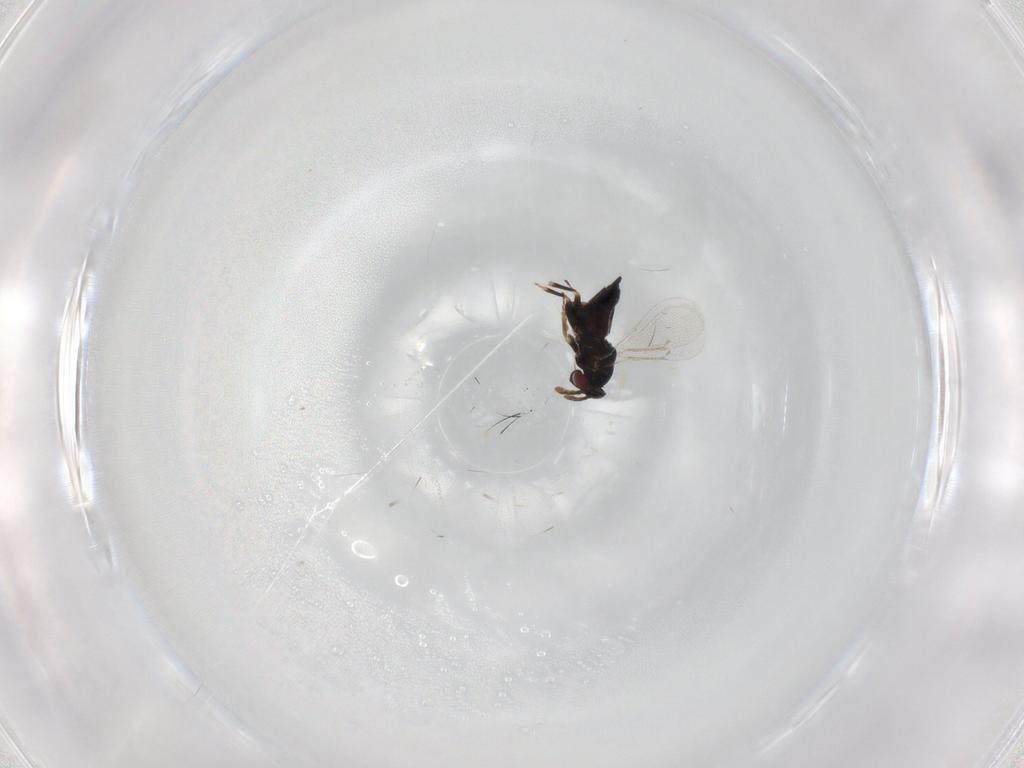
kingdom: Animalia
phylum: Arthropoda
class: Insecta
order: Hymenoptera
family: Eulophidae
